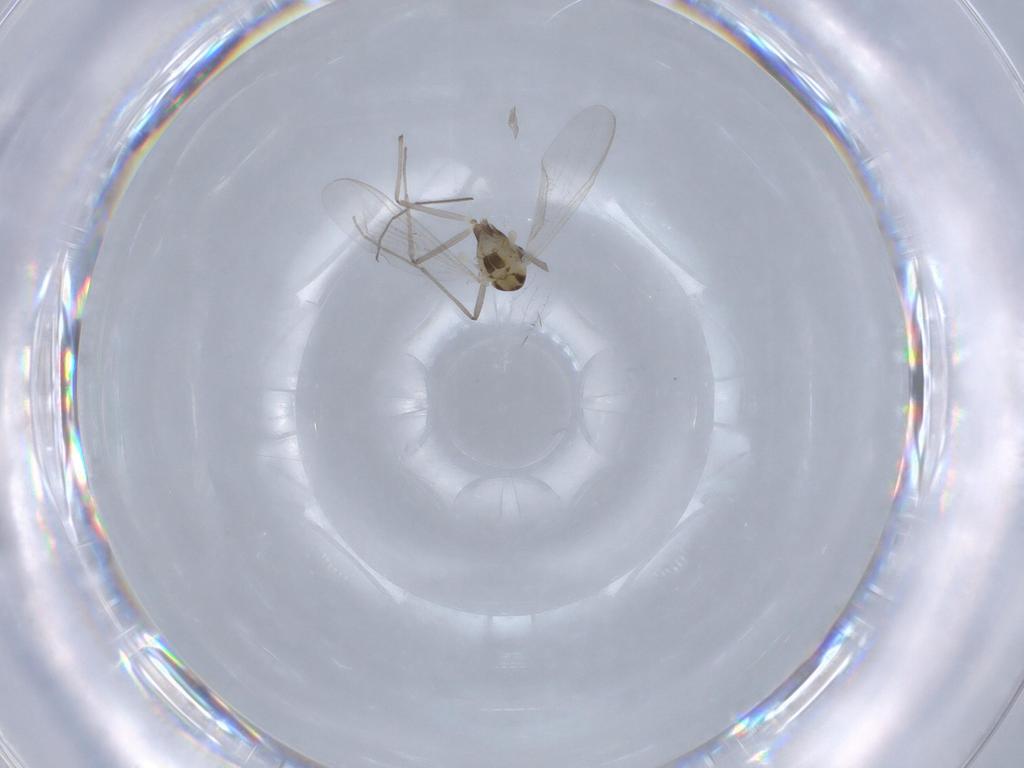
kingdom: Animalia
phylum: Arthropoda
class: Insecta
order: Diptera
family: Chironomidae
